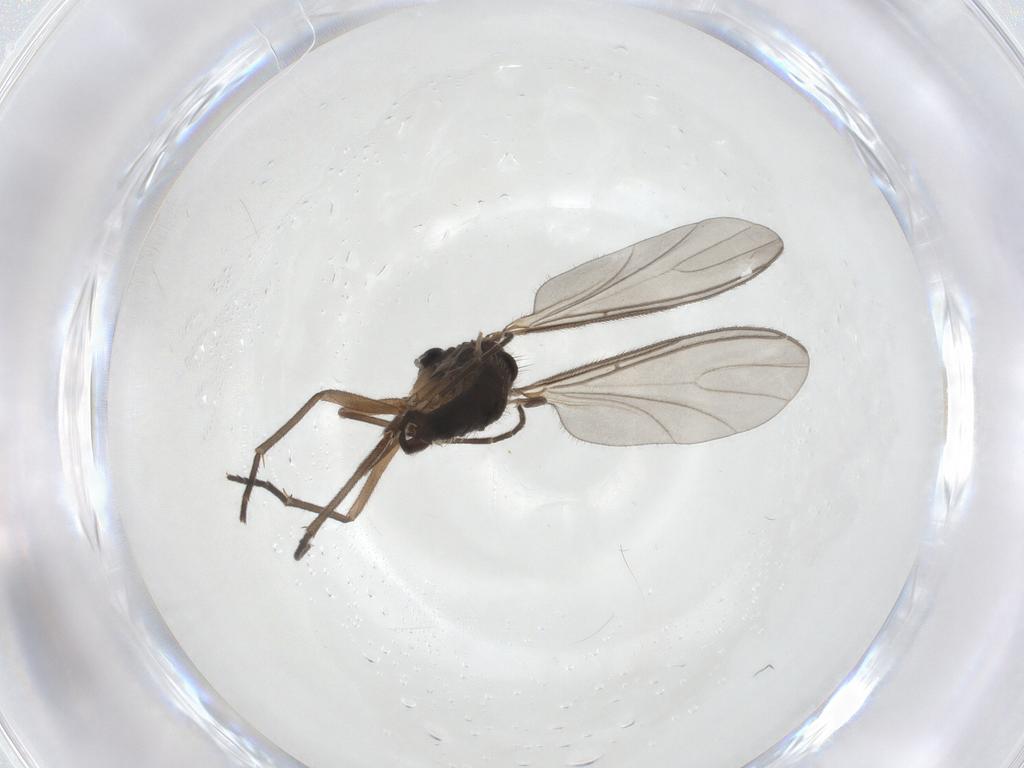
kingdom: Animalia
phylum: Arthropoda
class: Insecta
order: Diptera
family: Sciaridae
